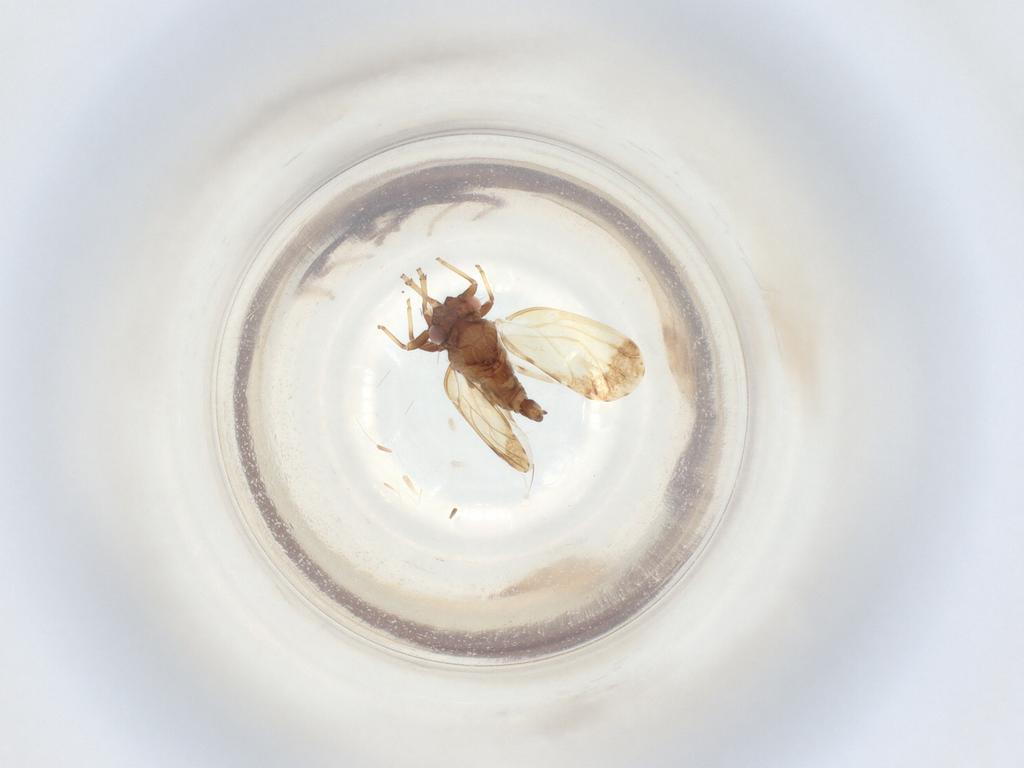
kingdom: Animalia
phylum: Arthropoda
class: Insecta
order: Hemiptera
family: Psyllidae
